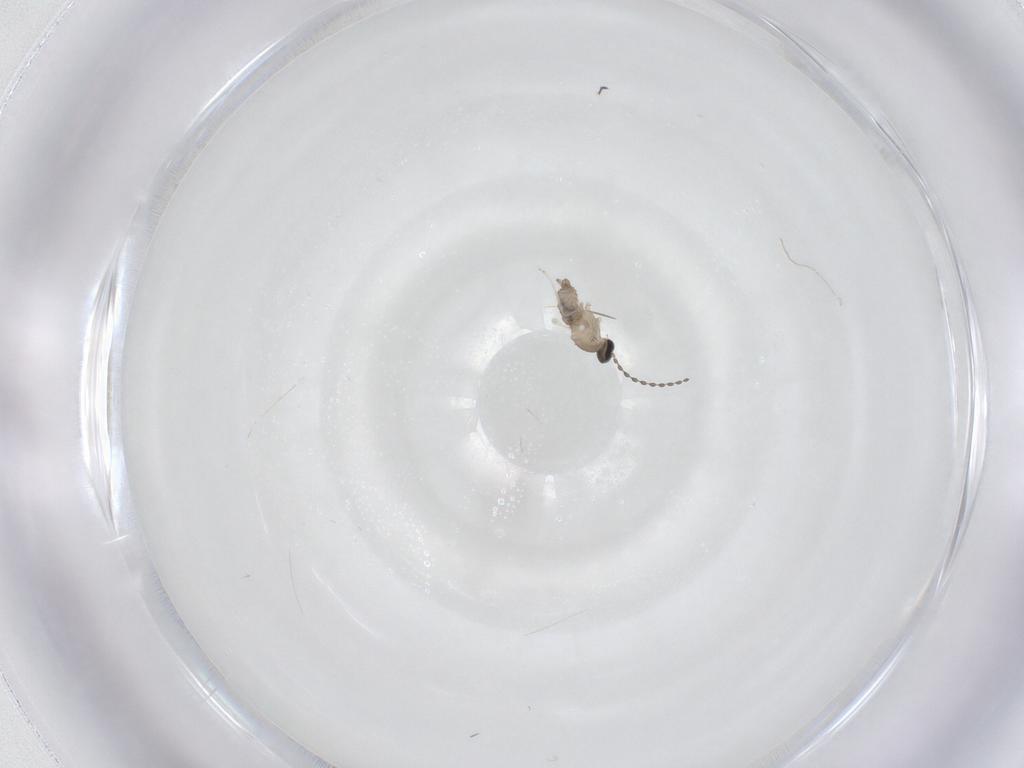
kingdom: Animalia
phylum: Arthropoda
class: Insecta
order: Diptera
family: Cecidomyiidae
